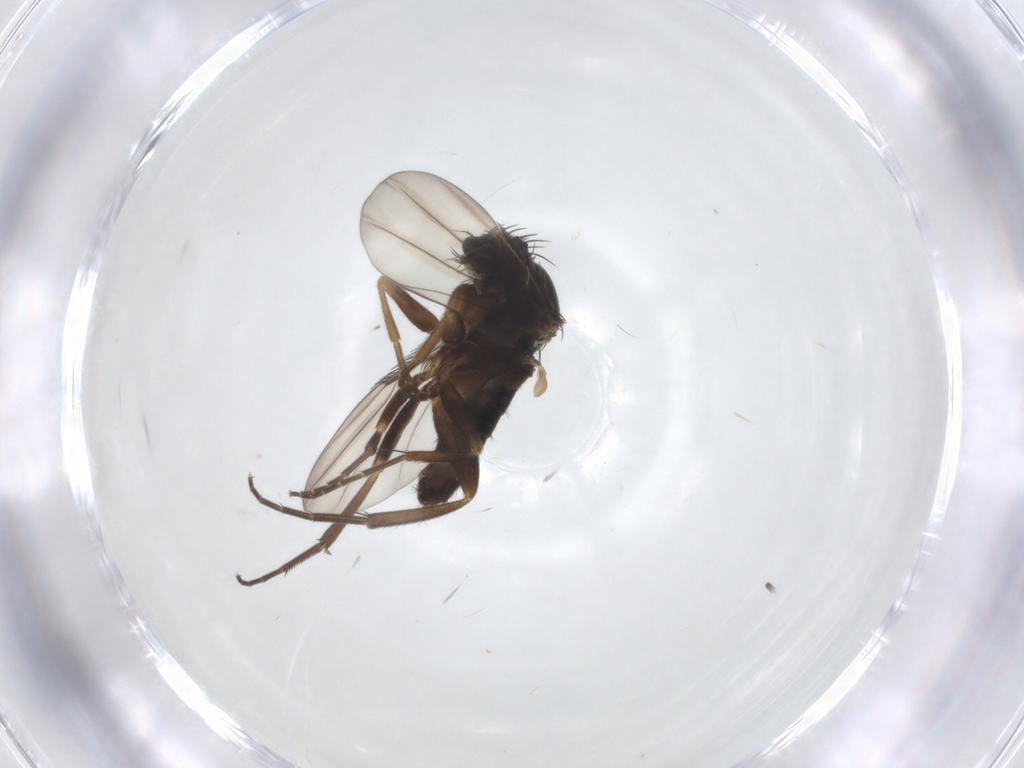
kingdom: Animalia
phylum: Arthropoda
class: Insecta
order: Diptera
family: Phoridae
